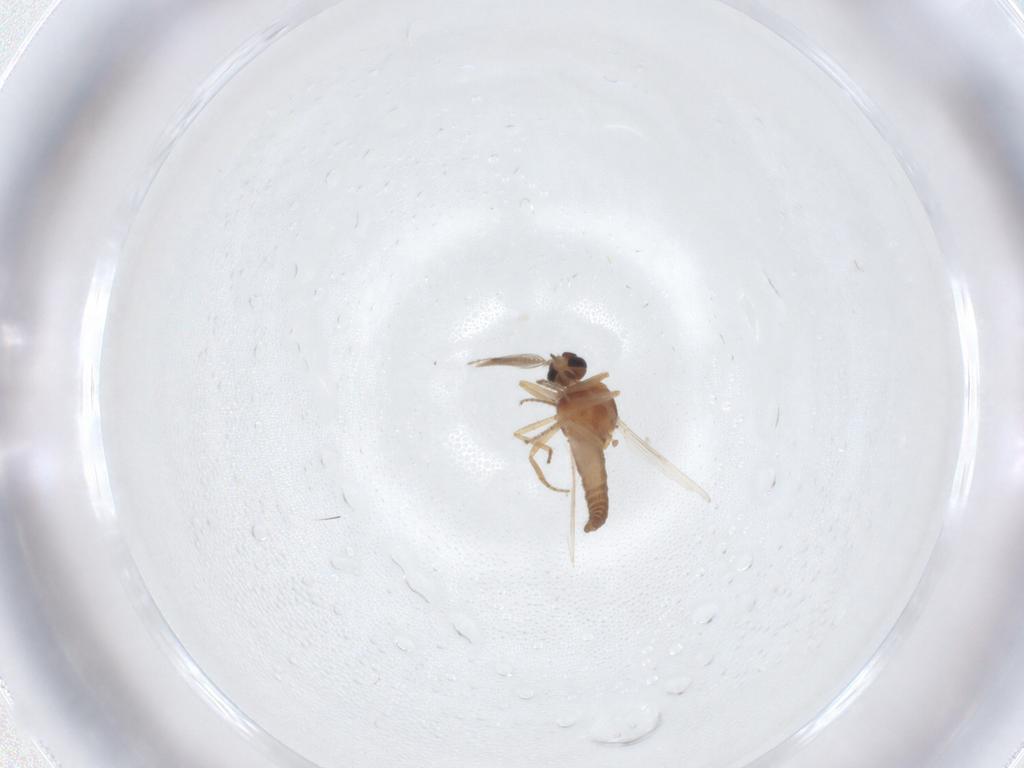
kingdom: Animalia
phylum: Arthropoda
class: Insecta
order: Diptera
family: Ceratopogonidae
